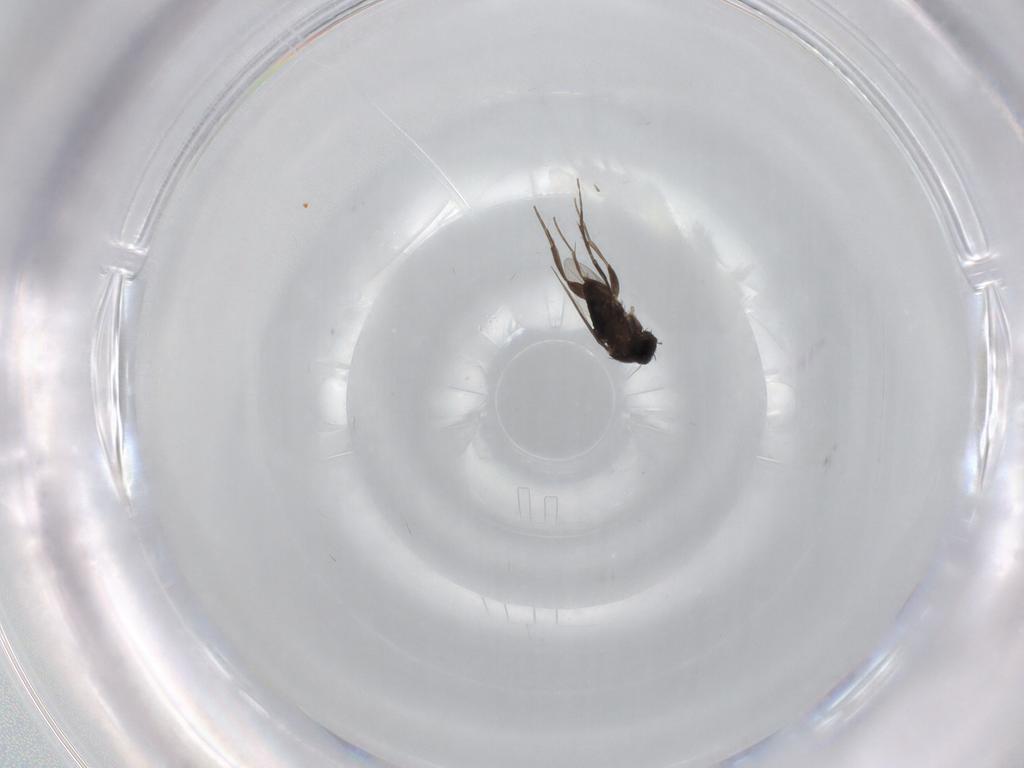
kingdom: Animalia
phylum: Arthropoda
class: Insecta
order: Diptera
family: Phoridae
